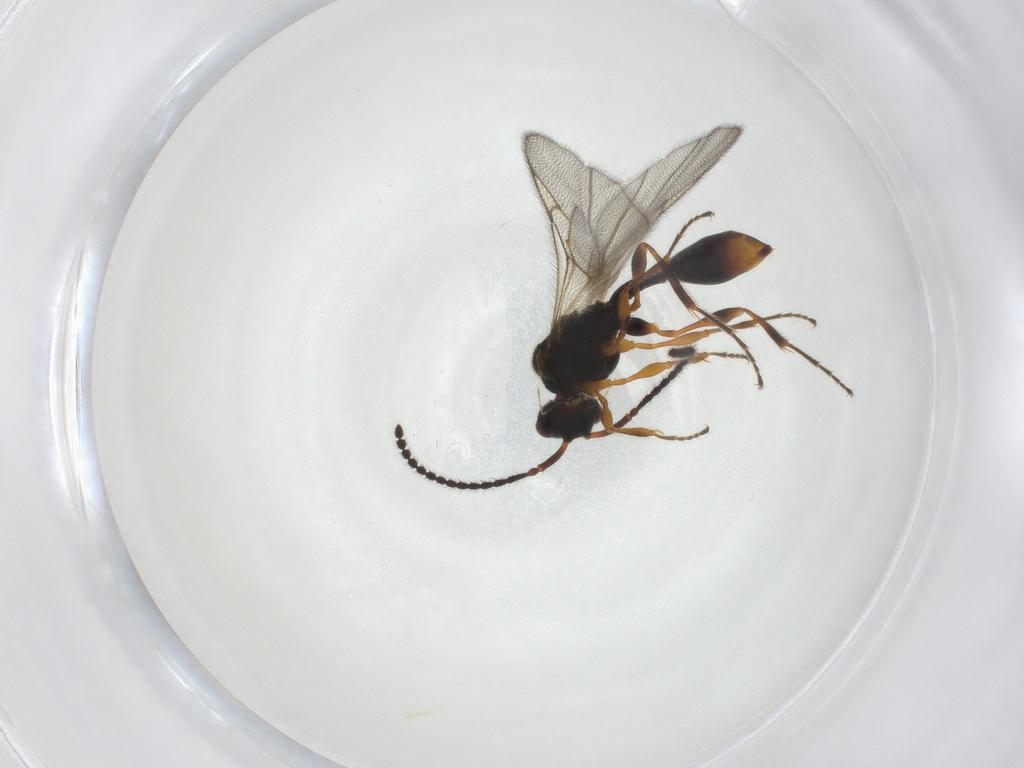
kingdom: Animalia
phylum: Arthropoda
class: Insecta
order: Hymenoptera
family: Diapriidae
